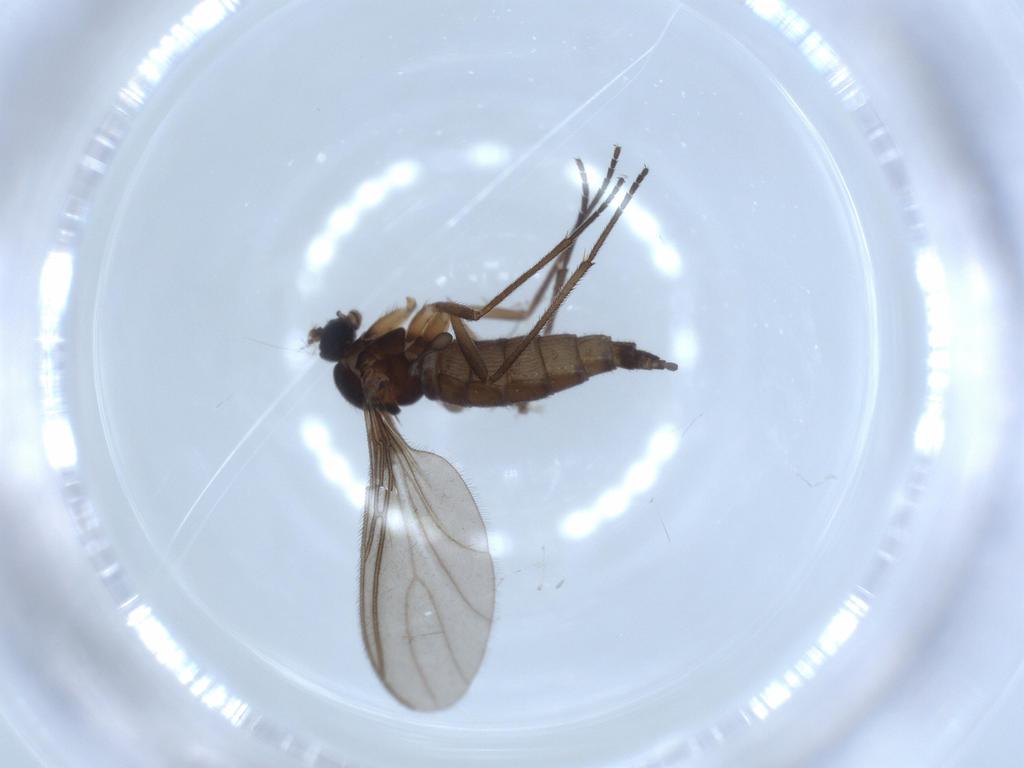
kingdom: Animalia
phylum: Arthropoda
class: Insecta
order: Diptera
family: Sciaridae
